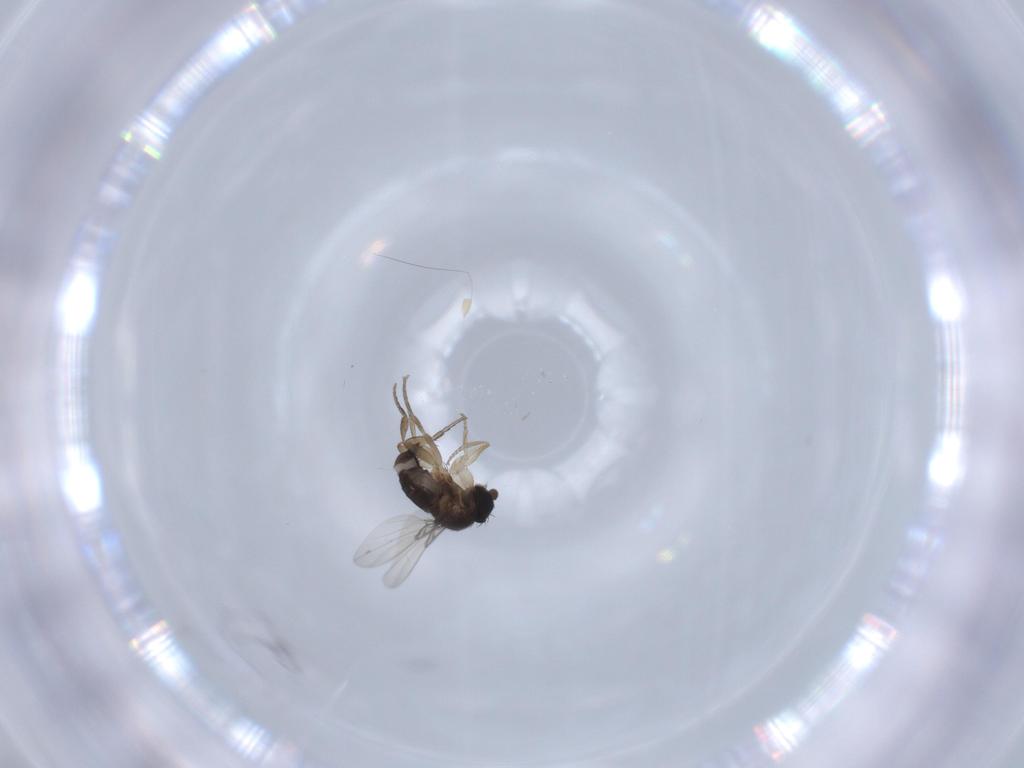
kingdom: Animalia
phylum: Arthropoda
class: Insecta
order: Diptera
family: Phoridae
